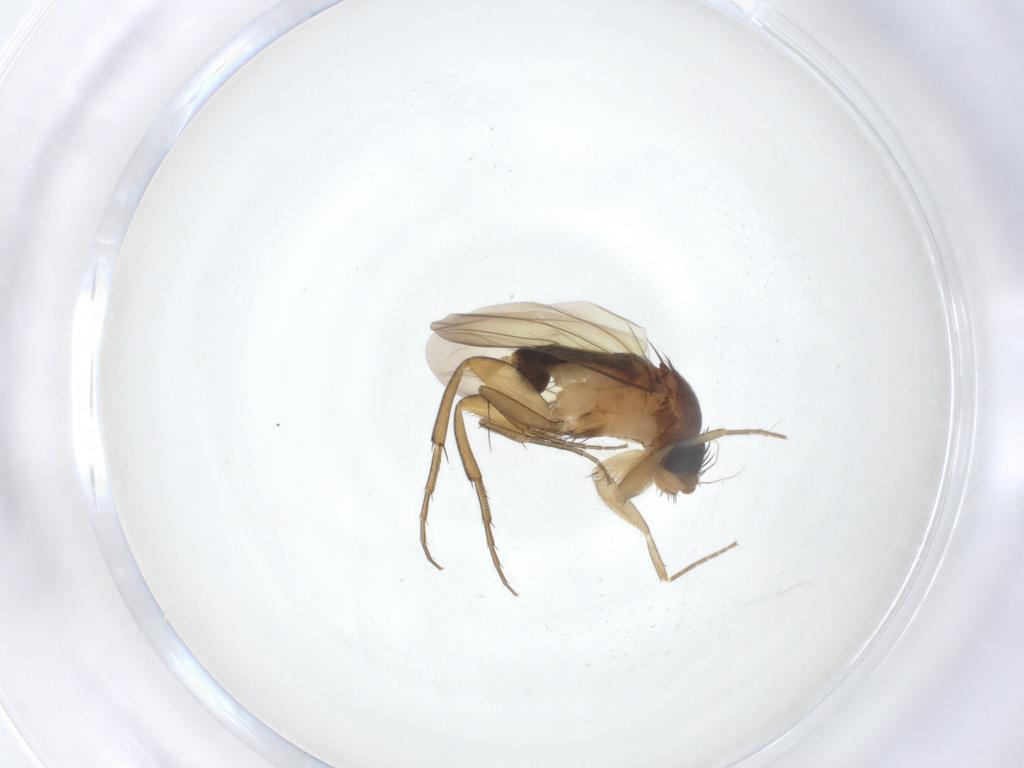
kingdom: Animalia
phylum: Arthropoda
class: Insecta
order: Diptera
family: Phoridae
